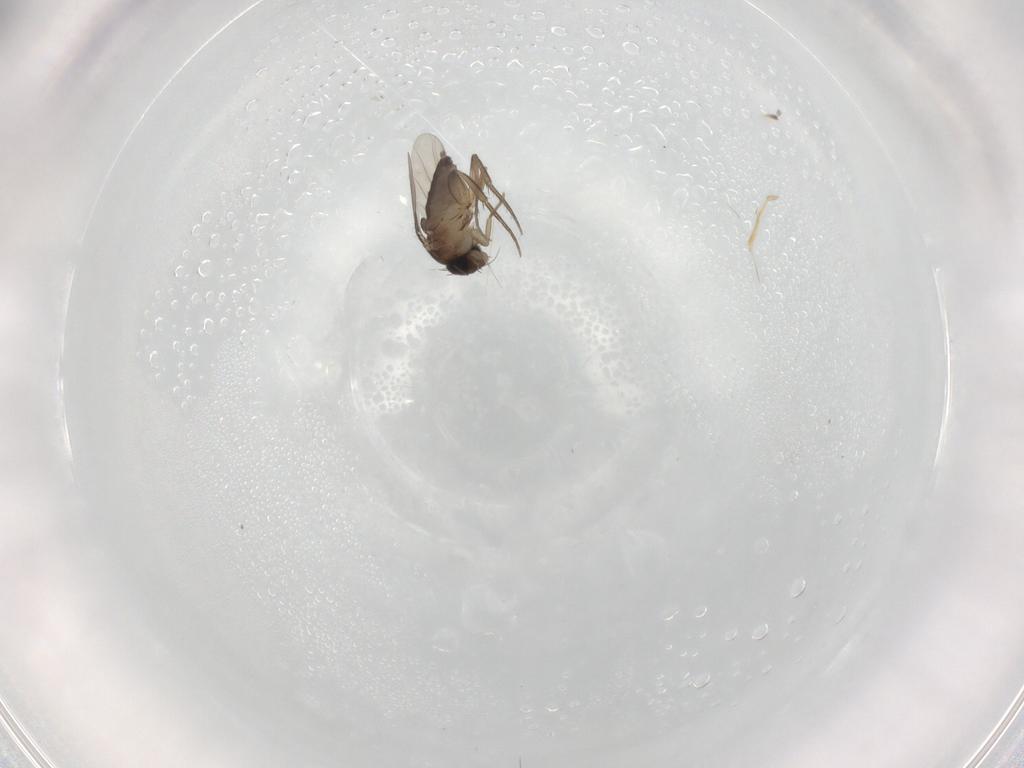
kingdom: Animalia
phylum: Arthropoda
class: Insecta
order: Diptera
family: Phoridae
